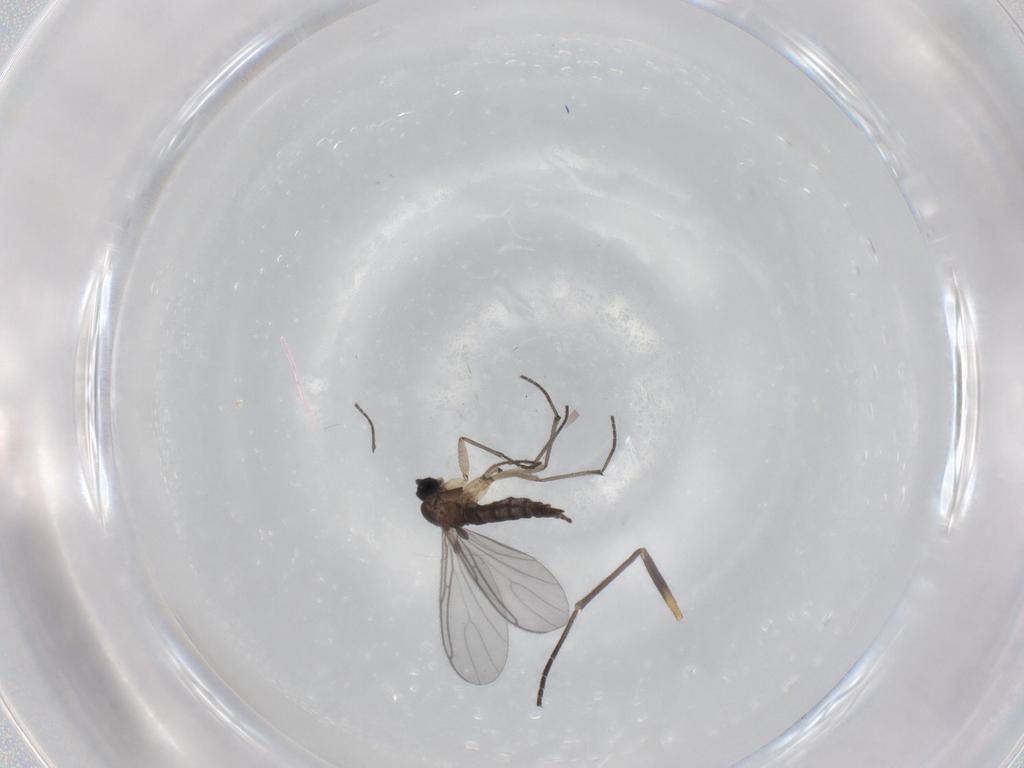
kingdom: Animalia
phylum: Arthropoda
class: Insecta
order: Diptera
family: Sciaridae
